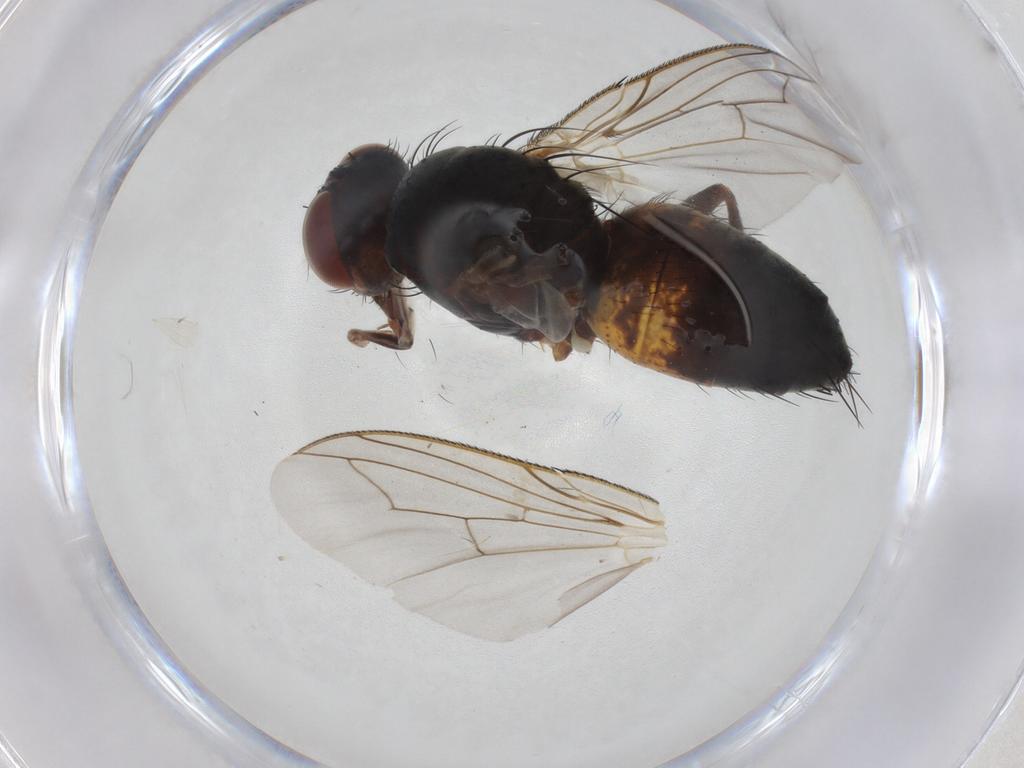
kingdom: Animalia
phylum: Arthropoda
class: Insecta
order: Diptera
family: Tachinidae
